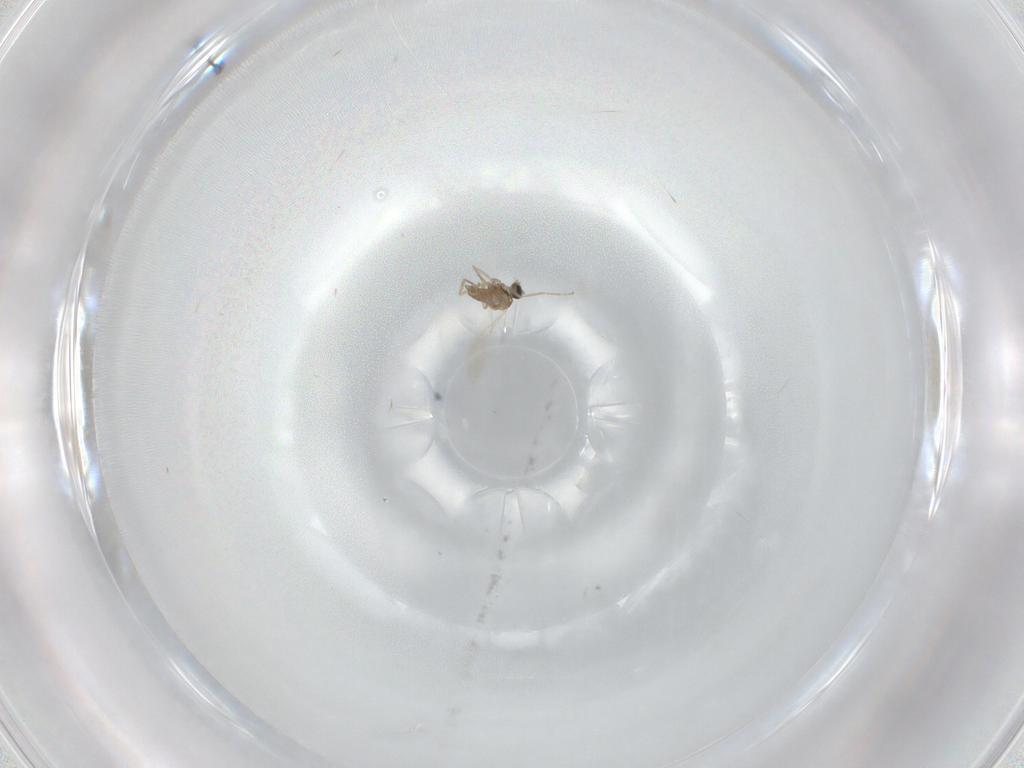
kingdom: Animalia
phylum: Arthropoda
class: Insecta
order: Diptera
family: Cecidomyiidae
